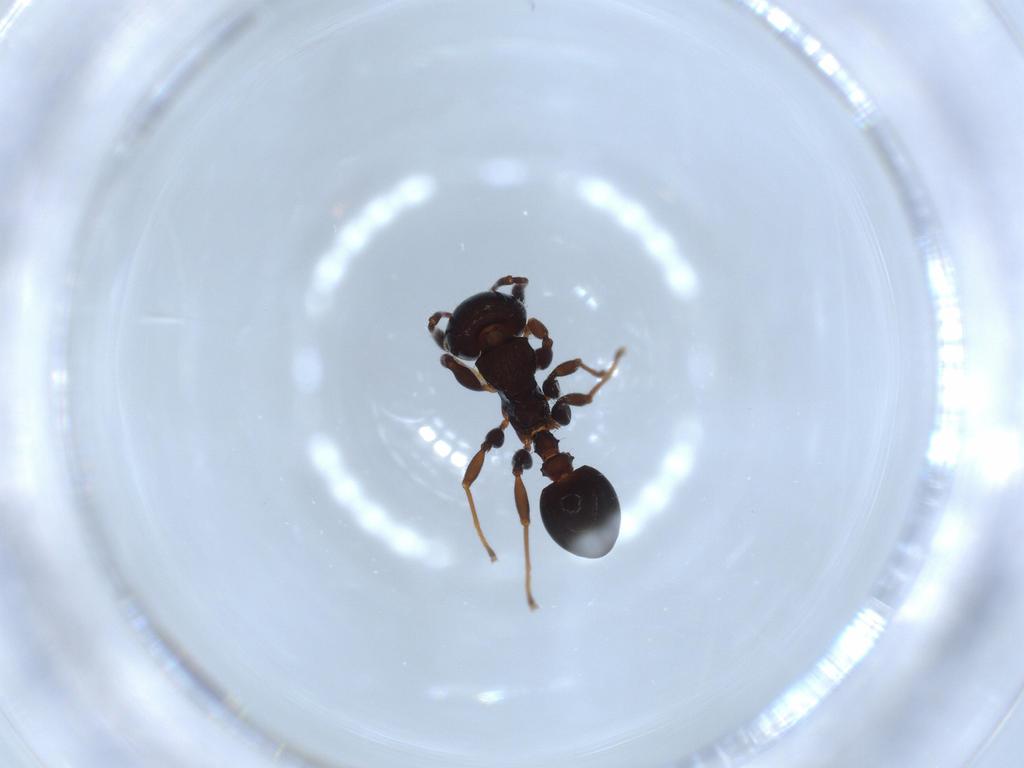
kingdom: Animalia
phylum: Arthropoda
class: Insecta
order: Hymenoptera
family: Formicidae
